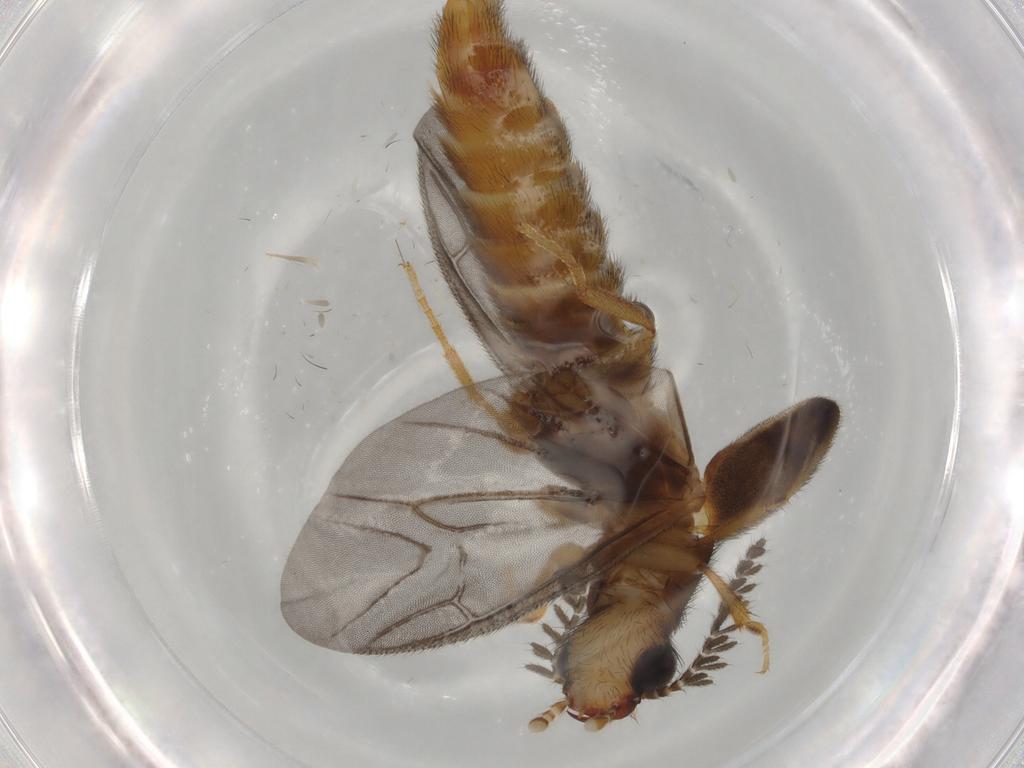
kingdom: Animalia
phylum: Arthropoda
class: Insecta
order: Coleoptera
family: Phengodidae
